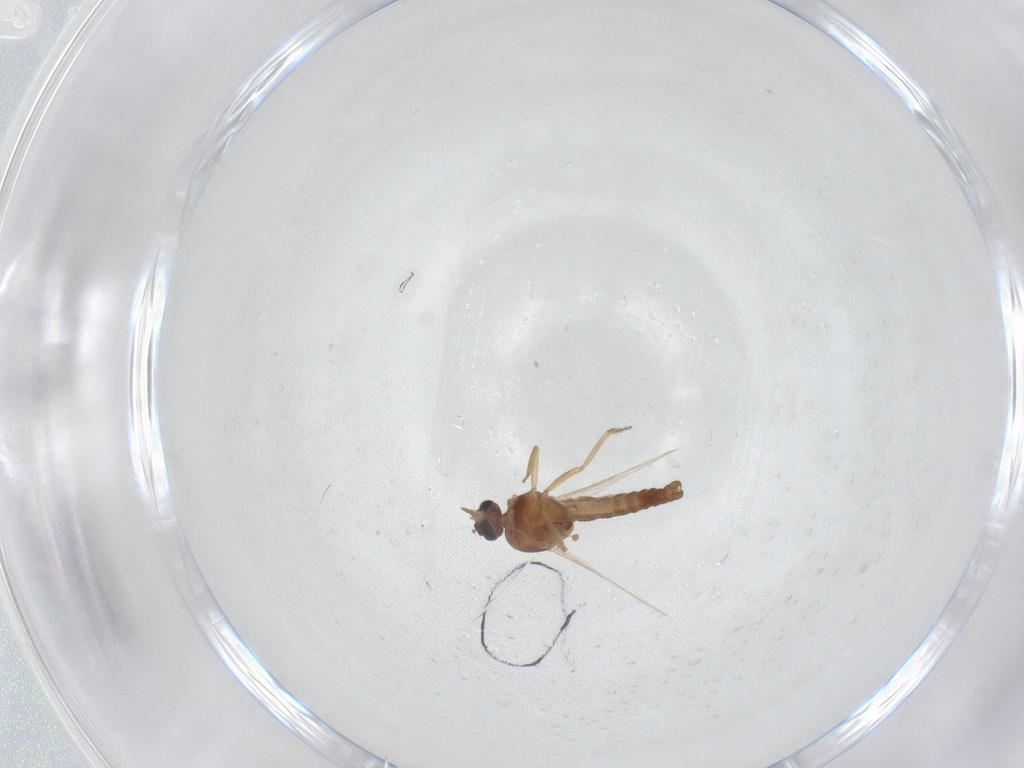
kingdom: Animalia
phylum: Arthropoda
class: Insecta
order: Diptera
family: Ceratopogonidae
